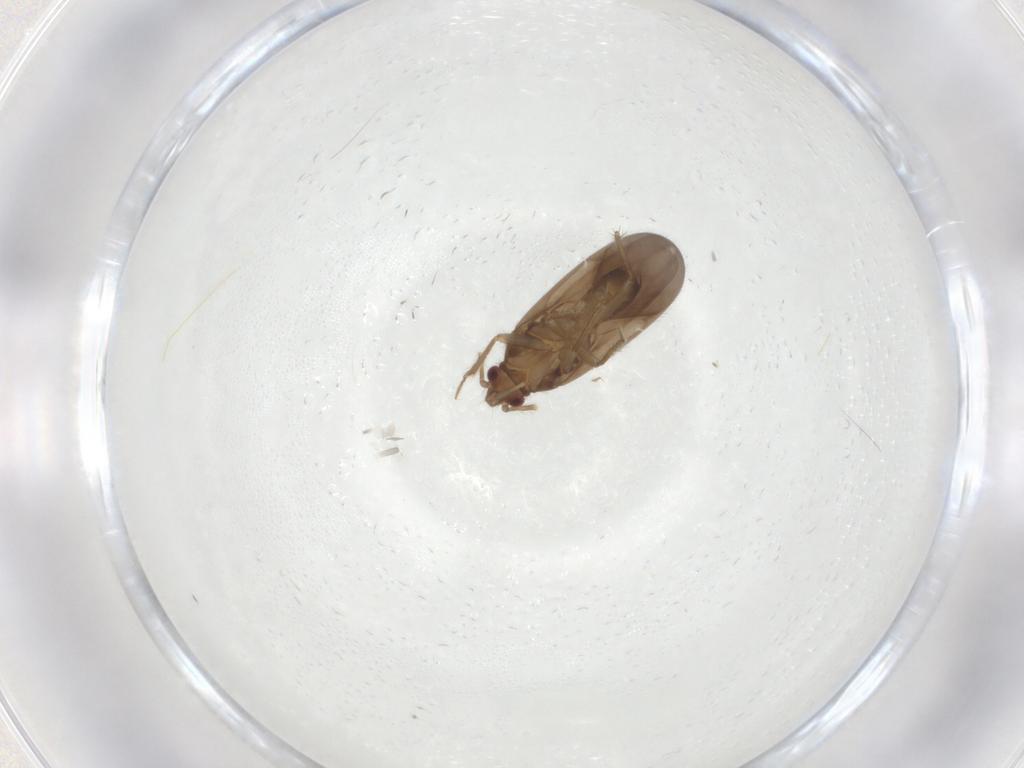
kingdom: Animalia
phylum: Arthropoda
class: Insecta
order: Hemiptera
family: Ceratocombidae
